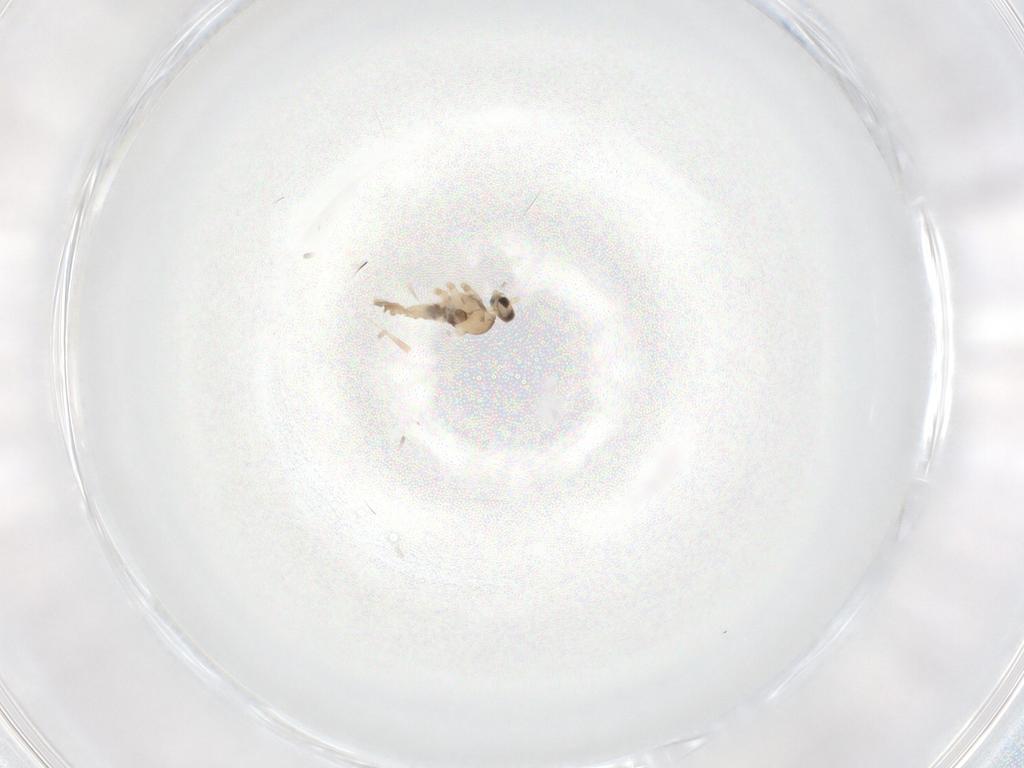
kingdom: Animalia
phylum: Arthropoda
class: Insecta
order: Diptera
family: Cecidomyiidae
